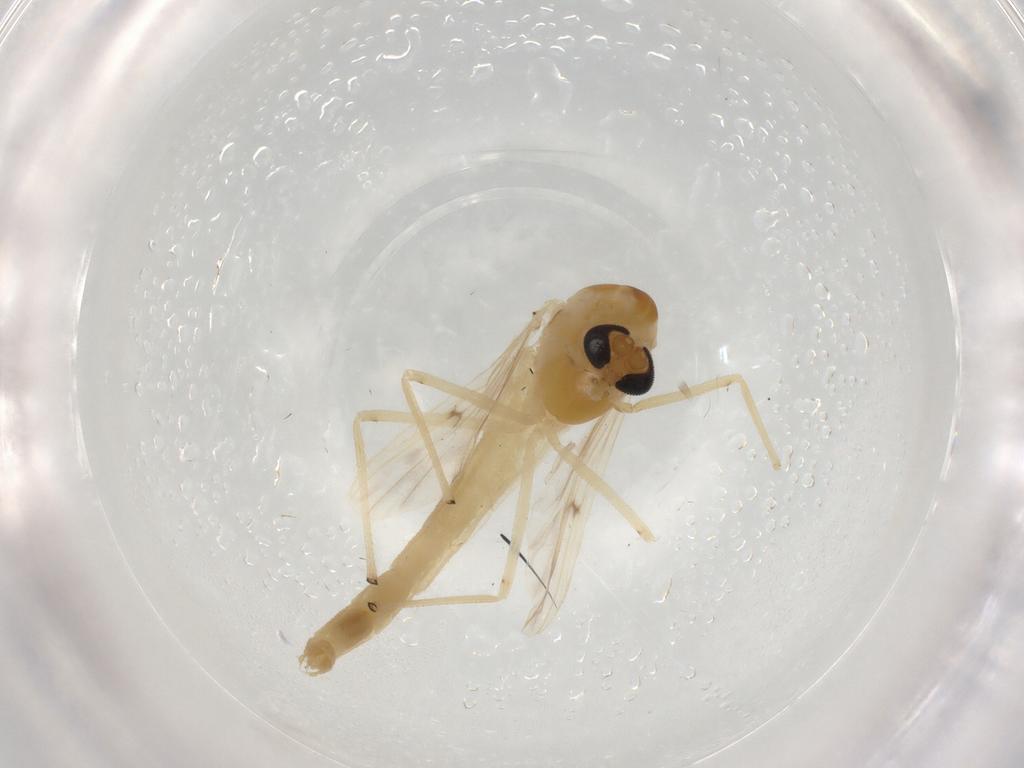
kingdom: Animalia
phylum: Arthropoda
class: Insecta
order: Diptera
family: Chironomidae
